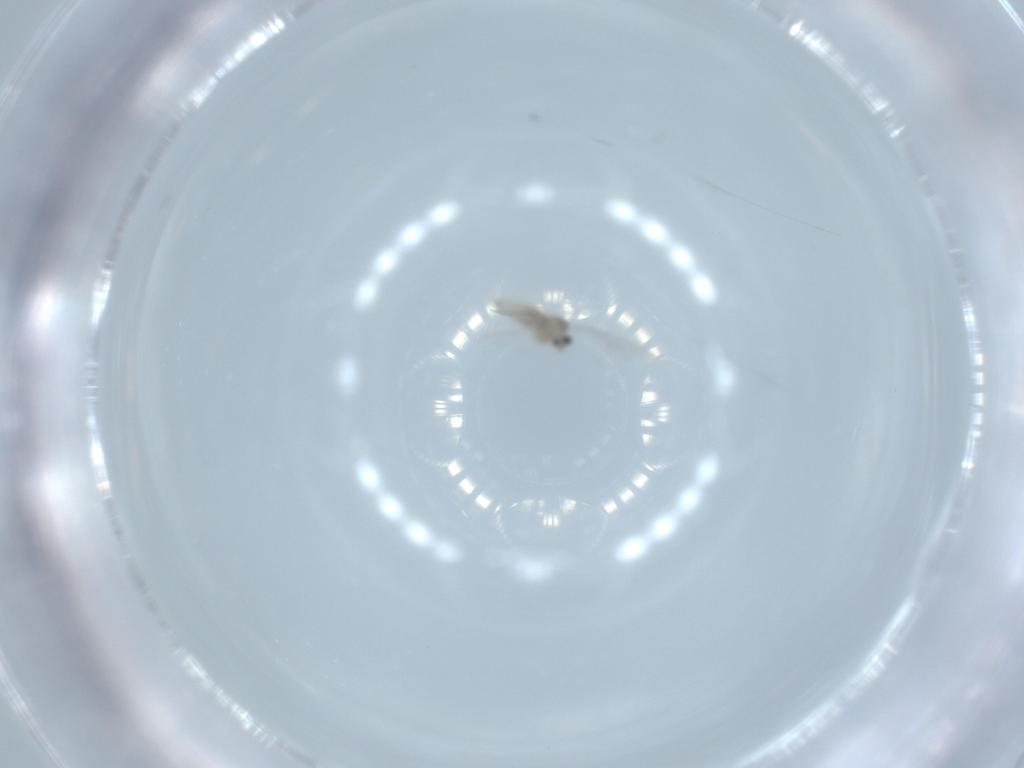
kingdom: Animalia
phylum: Arthropoda
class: Insecta
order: Diptera
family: Cecidomyiidae
